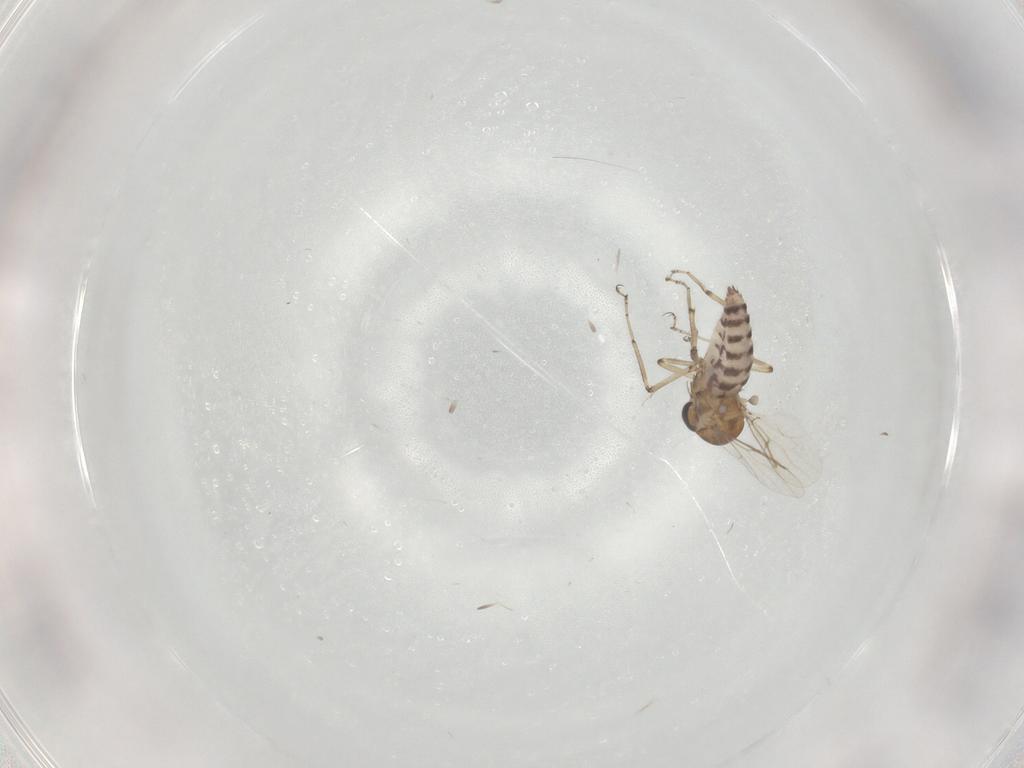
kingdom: Animalia
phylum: Arthropoda
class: Insecta
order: Diptera
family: Ceratopogonidae
